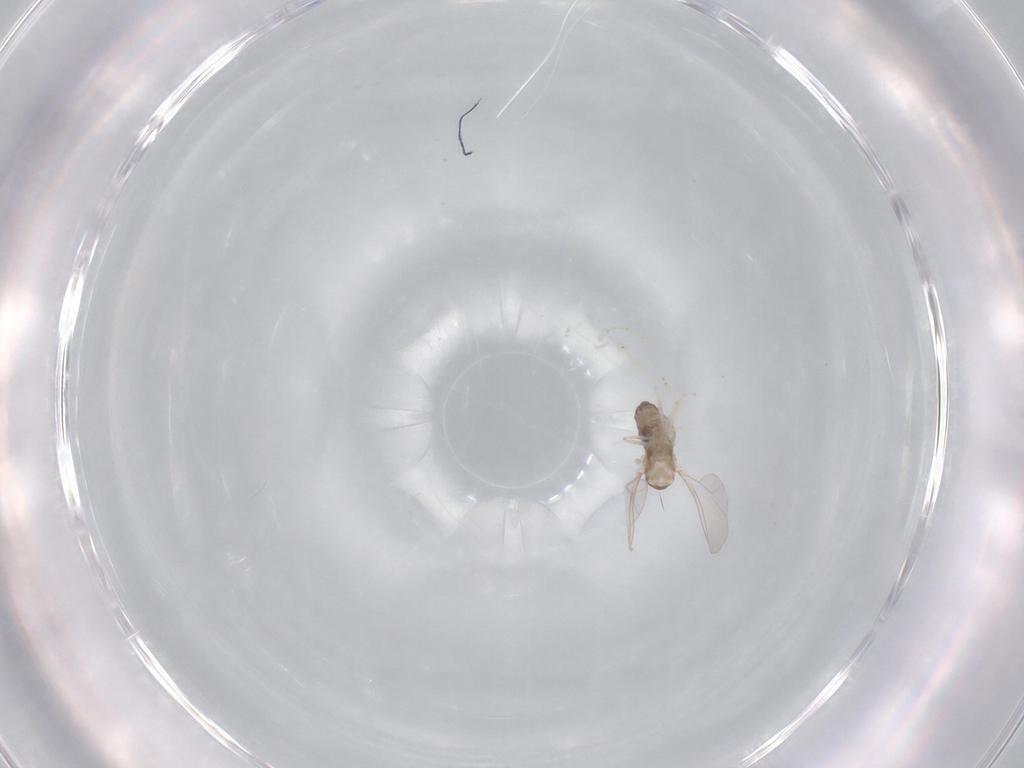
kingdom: Animalia
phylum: Arthropoda
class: Insecta
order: Diptera
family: Cecidomyiidae
